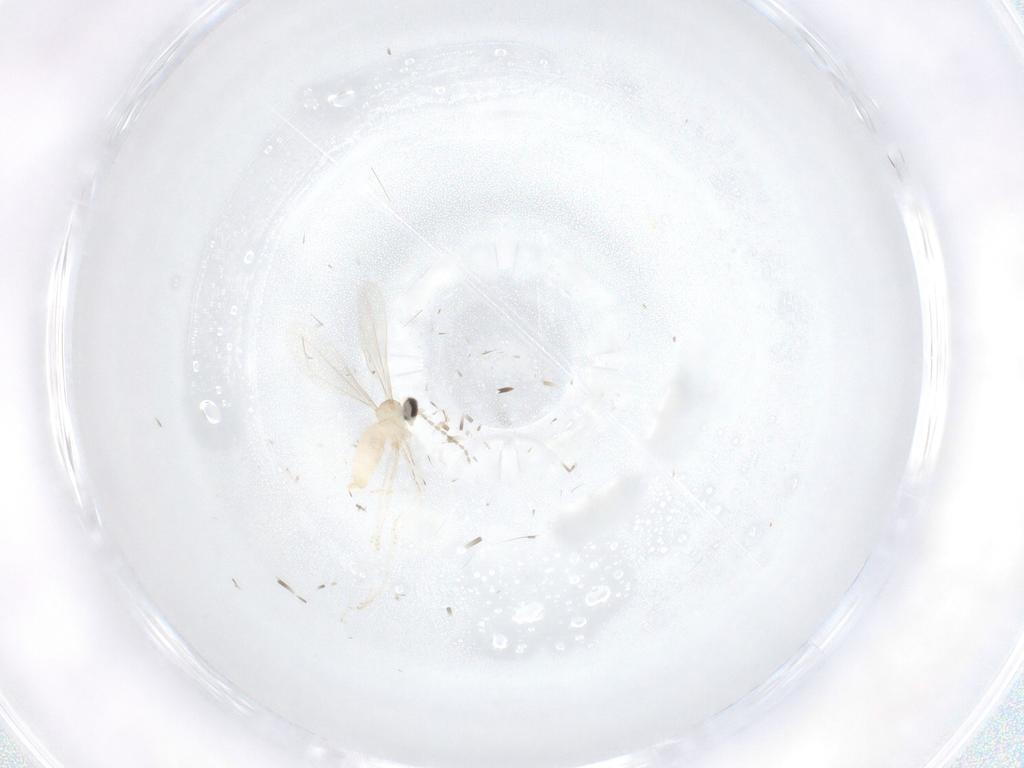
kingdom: Animalia
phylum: Arthropoda
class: Insecta
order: Diptera
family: Cecidomyiidae
